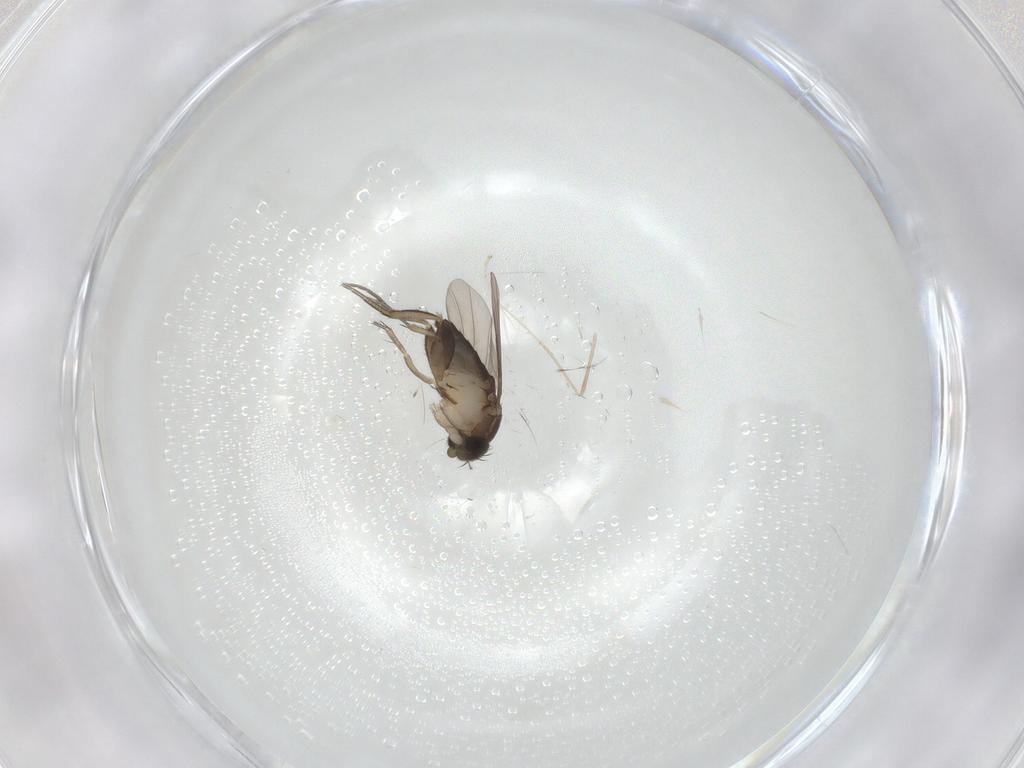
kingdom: Animalia
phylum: Arthropoda
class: Insecta
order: Diptera
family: Phoridae
